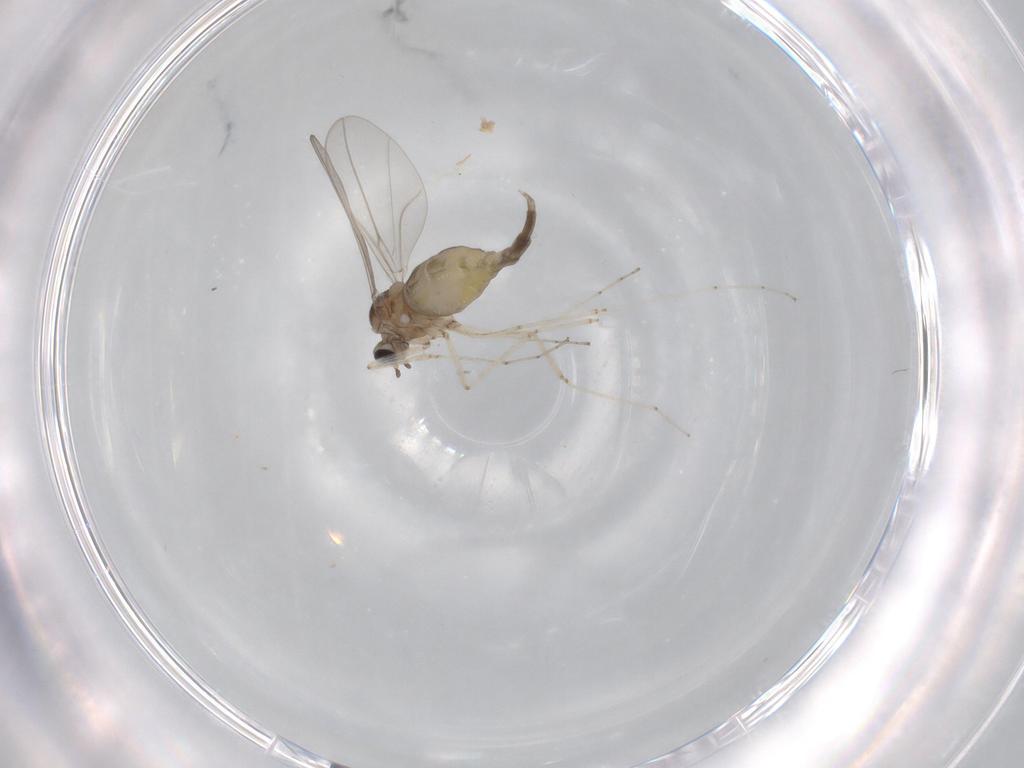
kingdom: Animalia
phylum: Arthropoda
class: Insecta
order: Diptera
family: Cecidomyiidae
